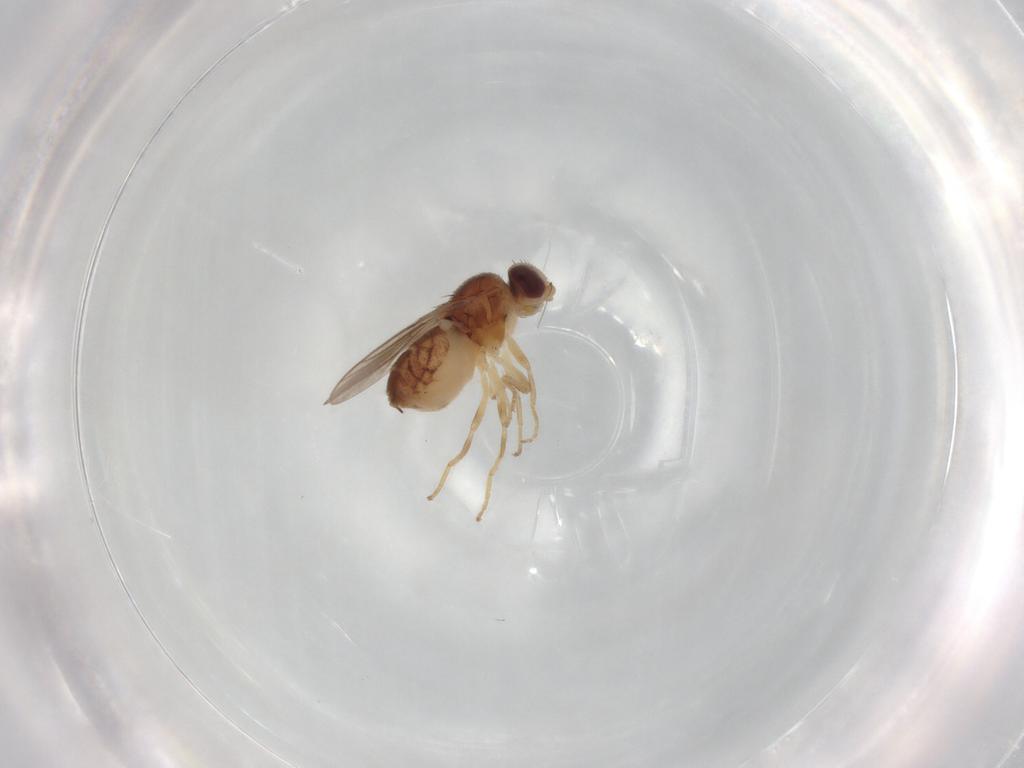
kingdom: Animalia
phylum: Arthropoda
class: Insecta
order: Diptera
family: Chloropidae
